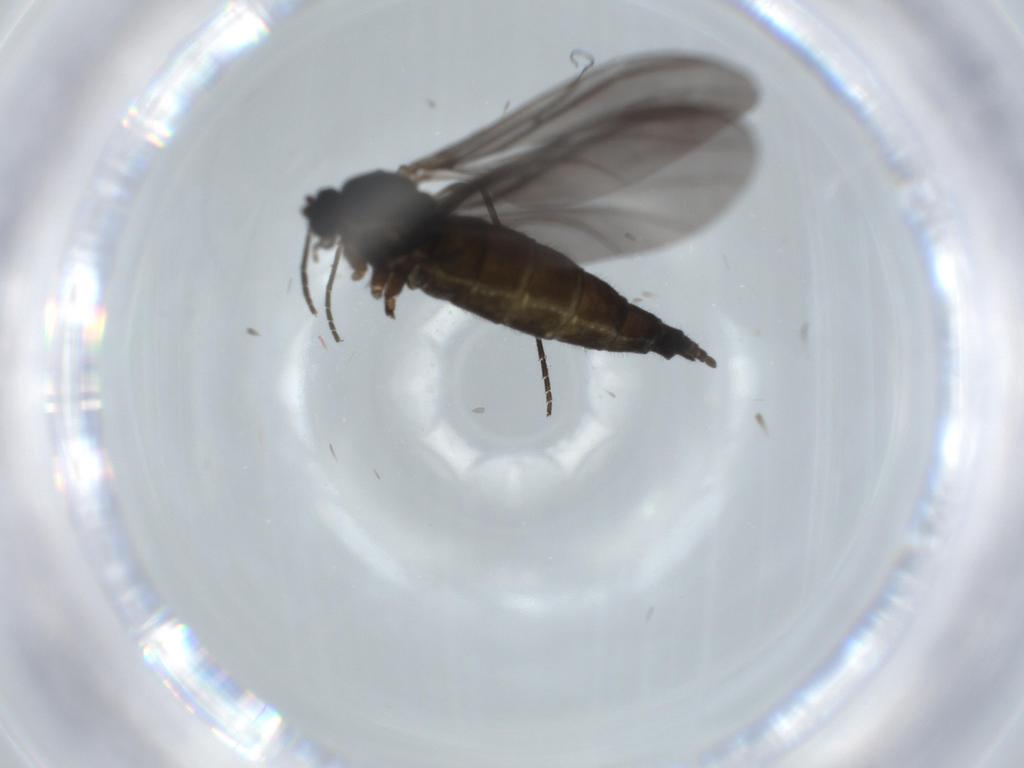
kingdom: Animalia
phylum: Arthropoda
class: Insecta
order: Diptera
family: Sciaridae
